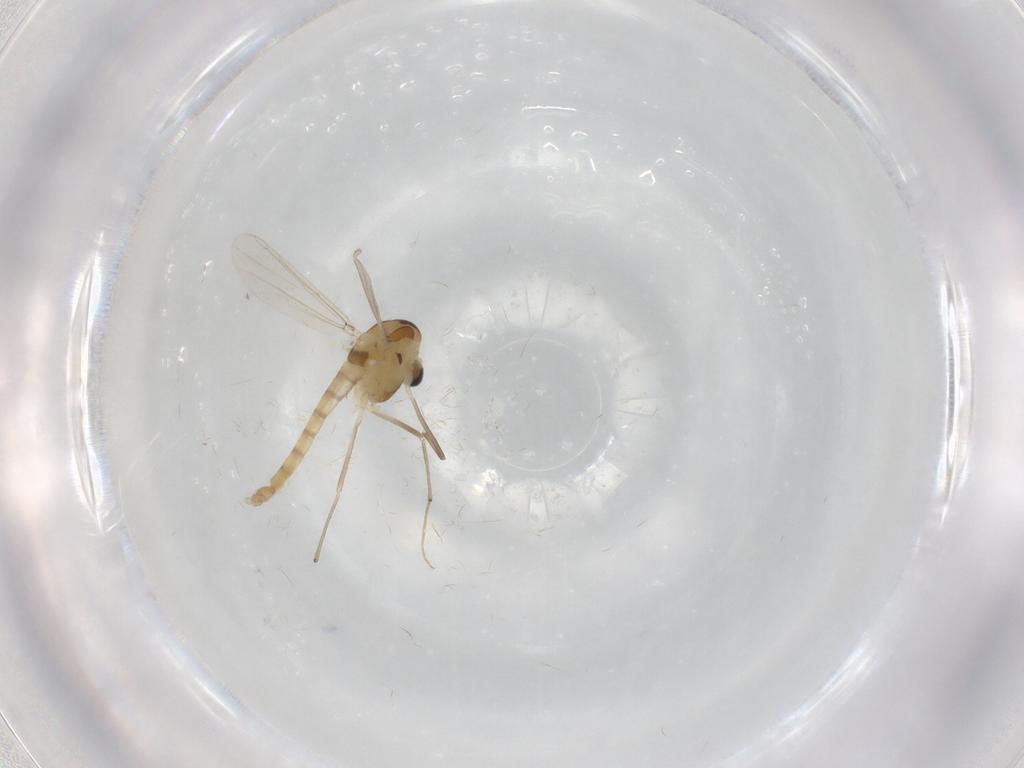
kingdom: Animalia
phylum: Arthropoda
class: Insecta
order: Diptera
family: Chironomidae
